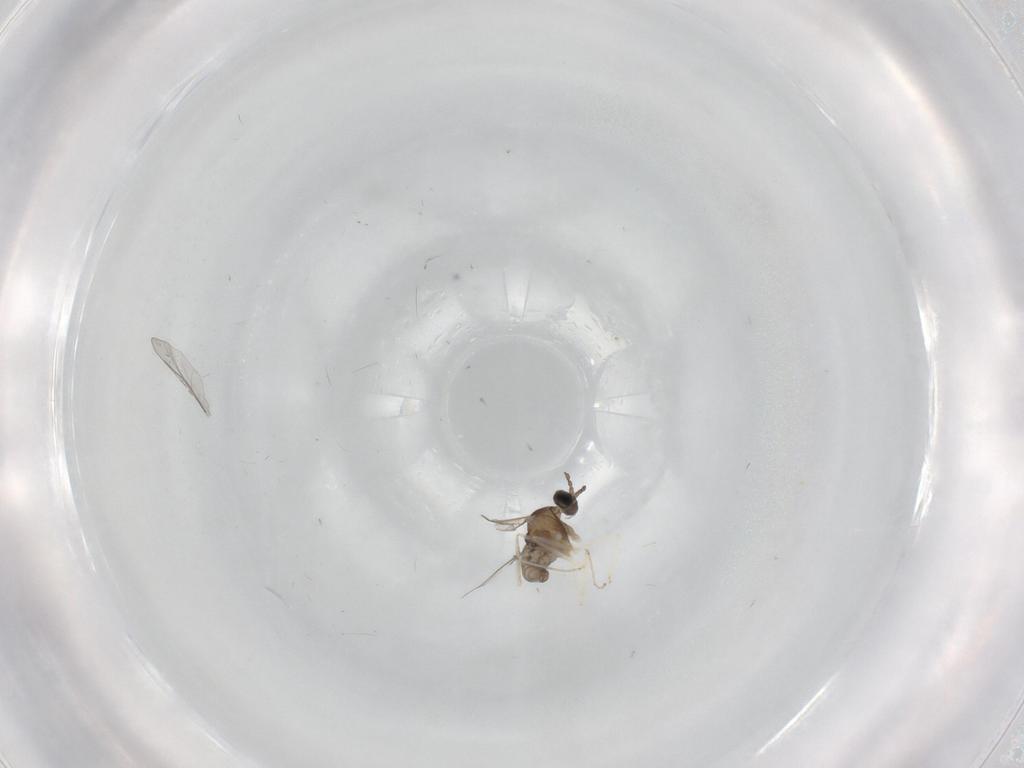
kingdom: Animalia
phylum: Arthropoda
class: Insecta
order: Diptera
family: Cecidomyiidae
